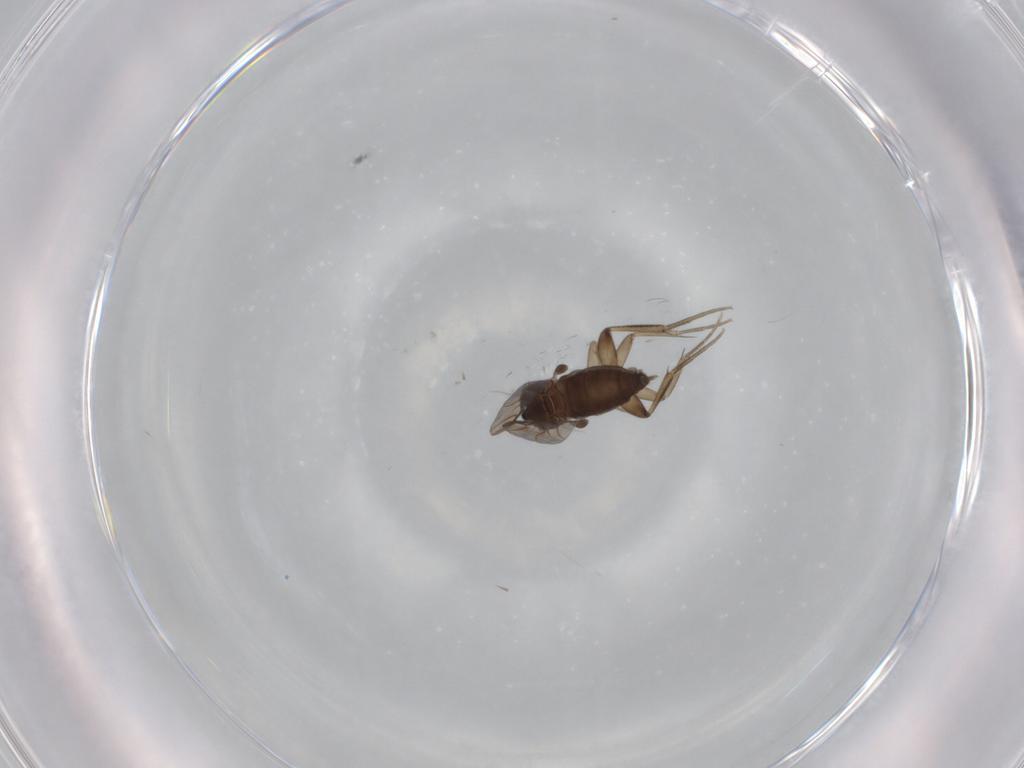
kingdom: Animalia
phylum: Arthropoda
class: Insecta
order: Diptera
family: Phoridae
